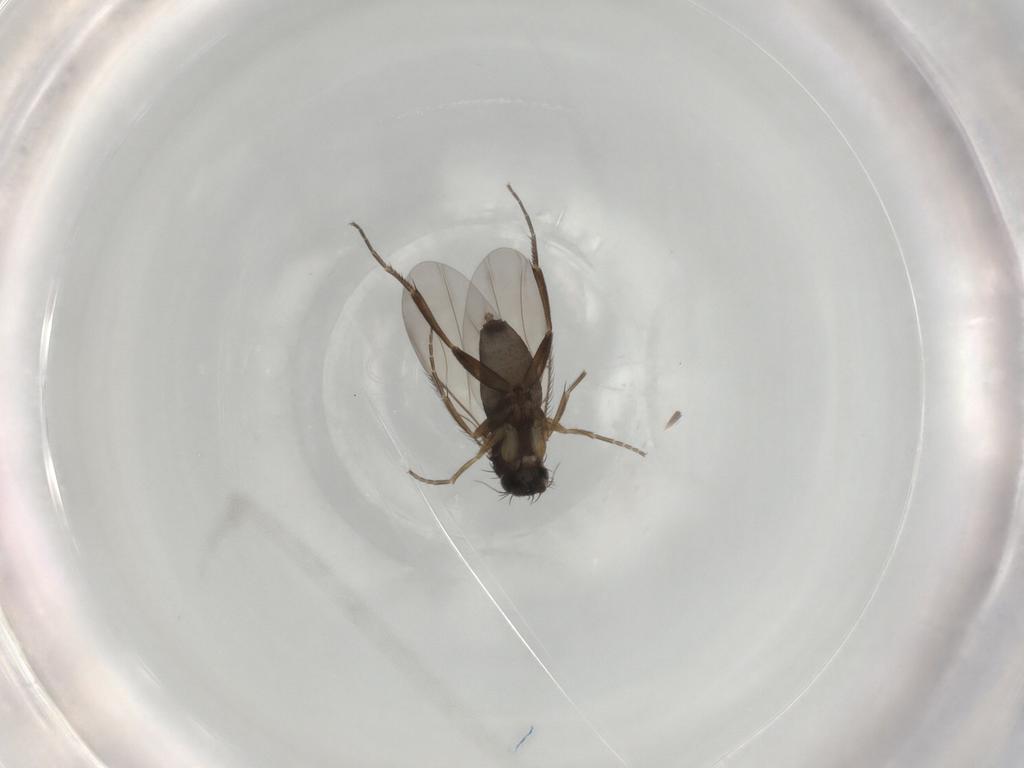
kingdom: Animalia
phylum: Arthropoda
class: Insecta
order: Diptera
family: Phoridae
